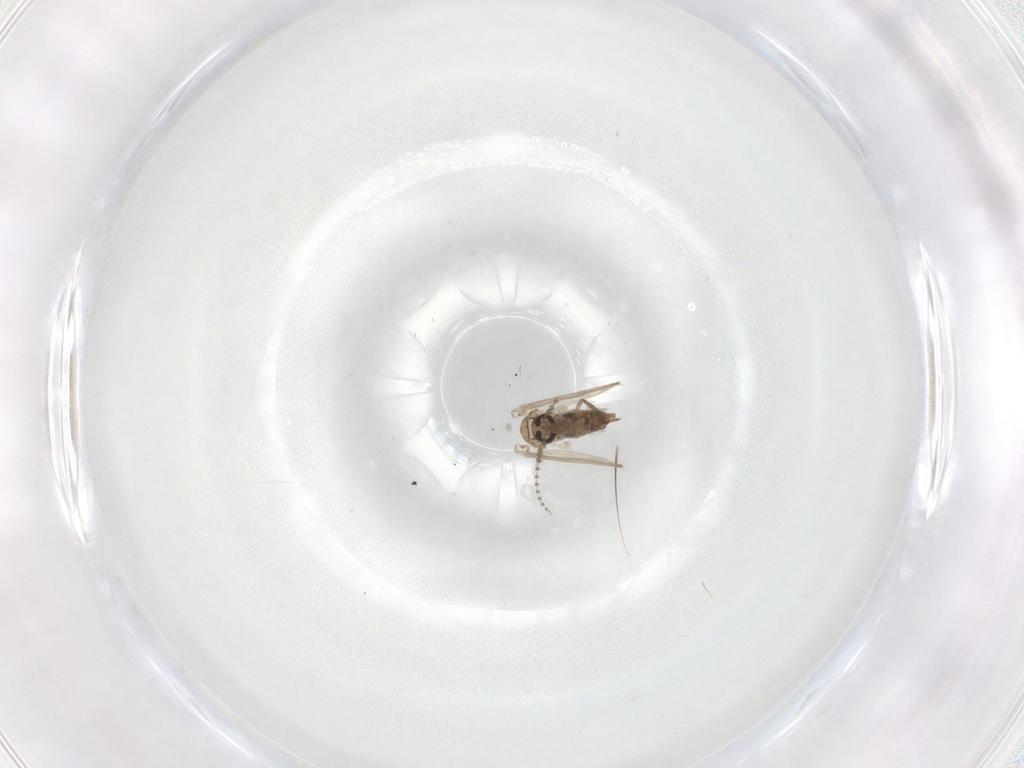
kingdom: Animalia
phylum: Arthropoda
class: Insecta
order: Diptera
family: Psychodidae
